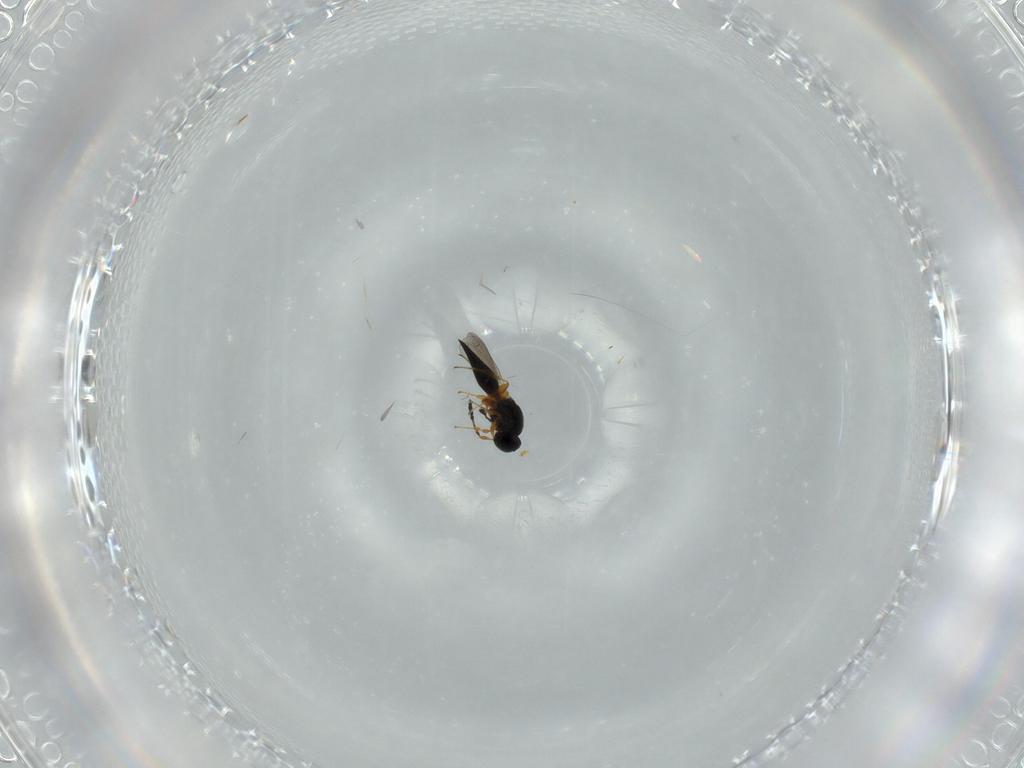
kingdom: Animalia
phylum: Arthropoda
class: Insecta
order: Hymenoptera
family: Platygastridae
